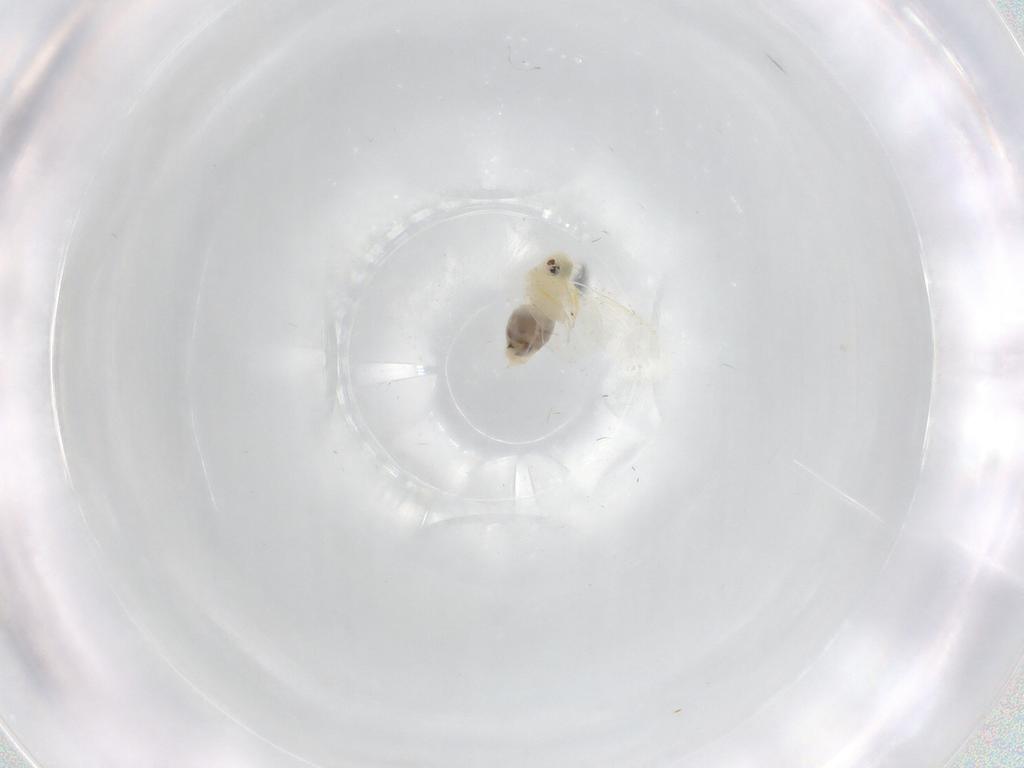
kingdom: Animalia
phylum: Arthropoda
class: Insecta
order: Hemiptera
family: Aleyrodidae
